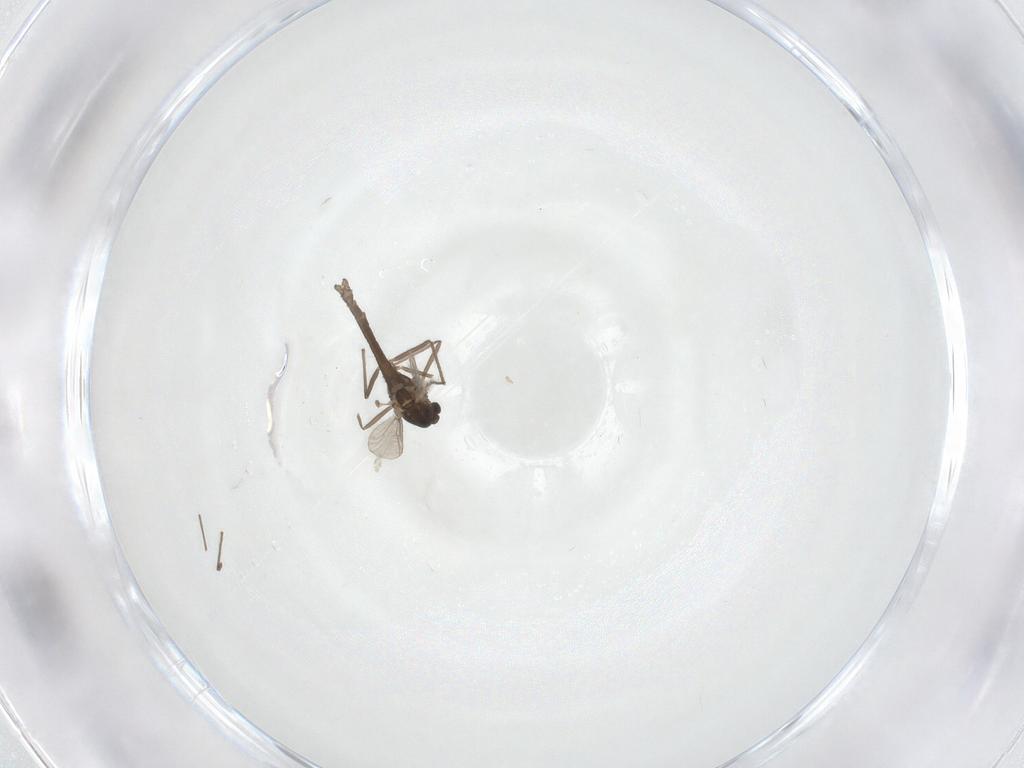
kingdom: Animalia
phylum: Arthropoda
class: Insecta
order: Diptera
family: Chironomidae
